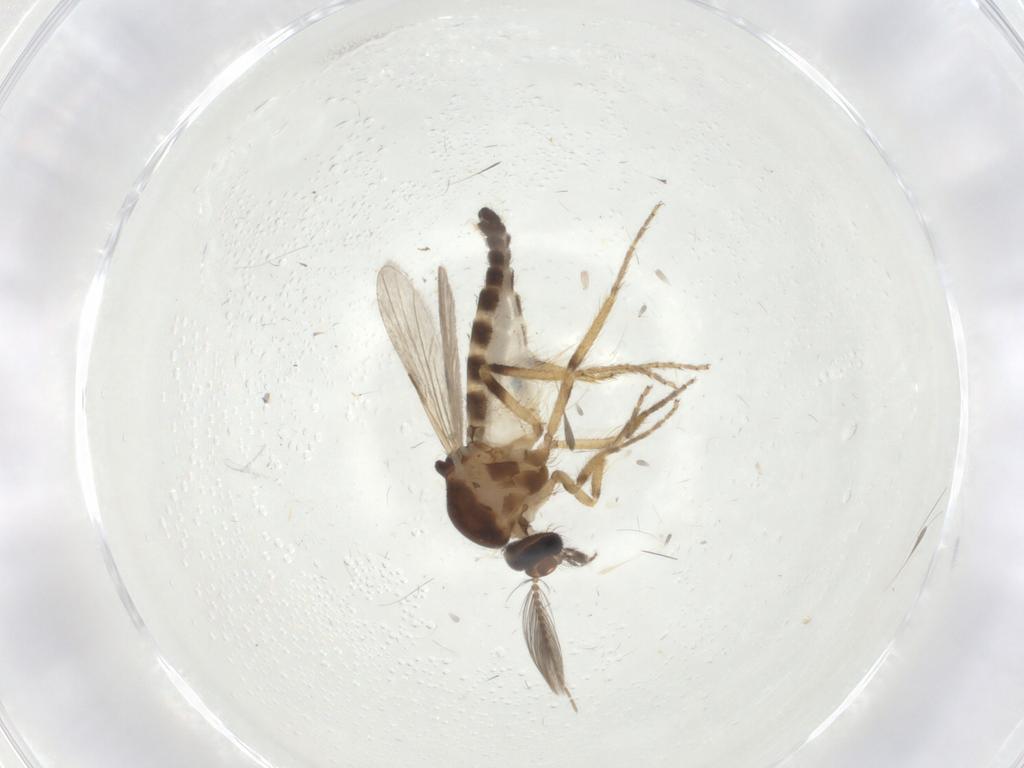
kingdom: Animalia
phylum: Arthropoda
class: Insecta
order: Diptera
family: Ceratopogonidae
